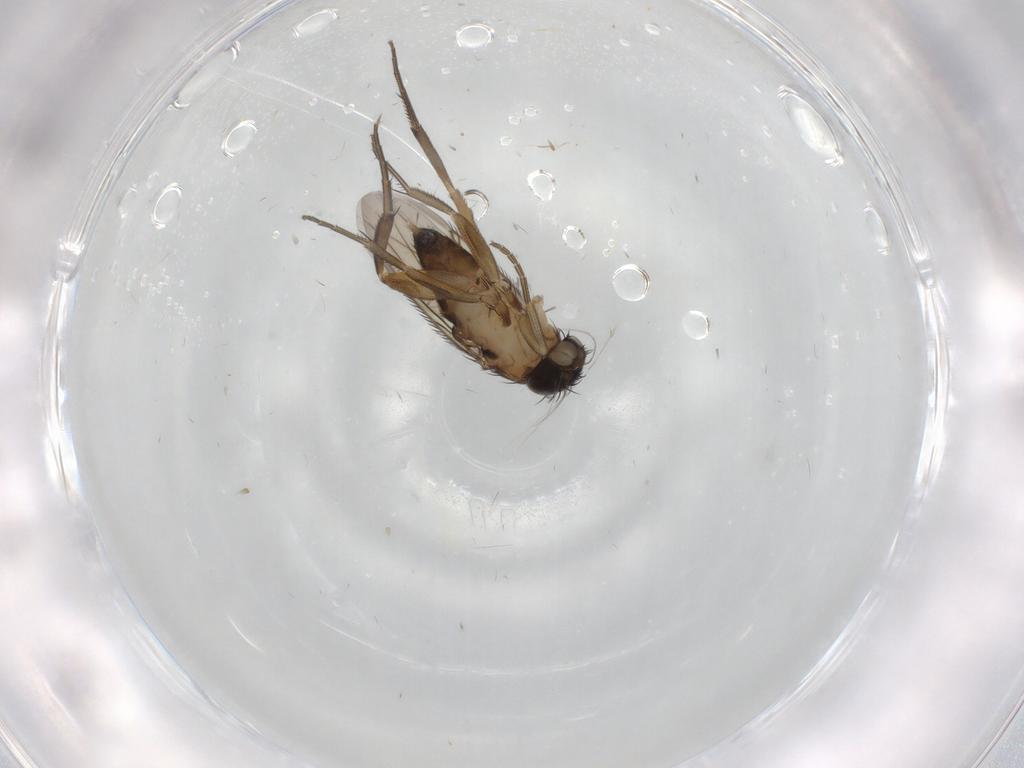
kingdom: Animalia
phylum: Arthropoda
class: Insecta
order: Diptera
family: Phoridae
